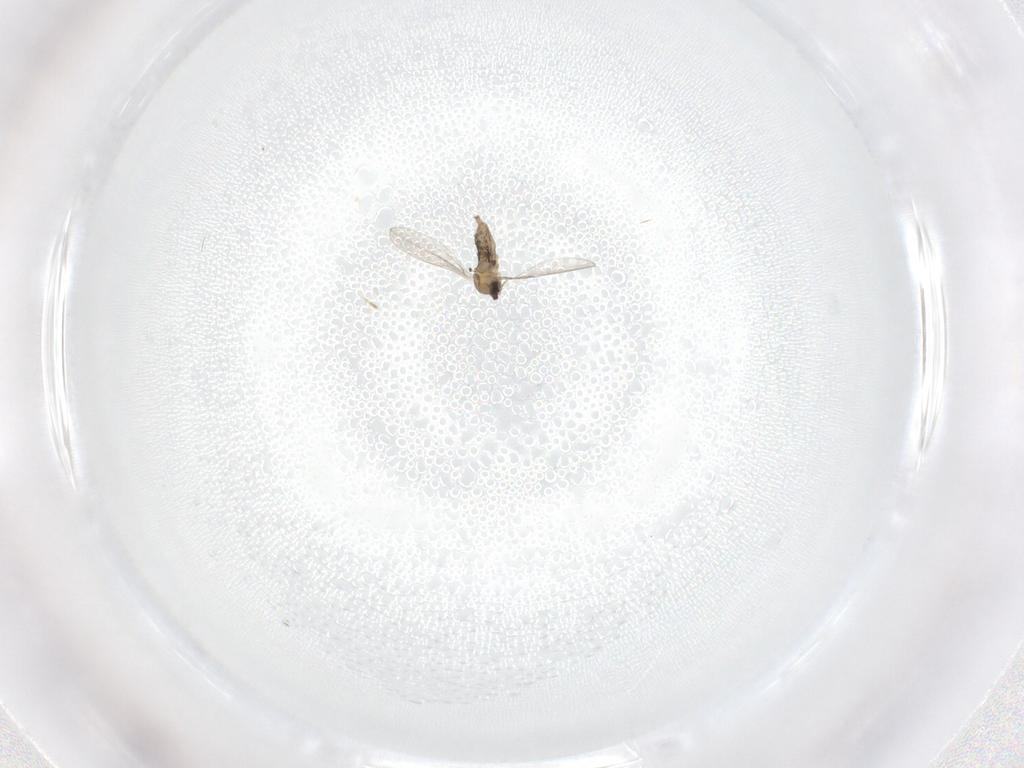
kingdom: Animalia
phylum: Arthropoda
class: Insecta
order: Diptera
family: Cecidomyiidae
